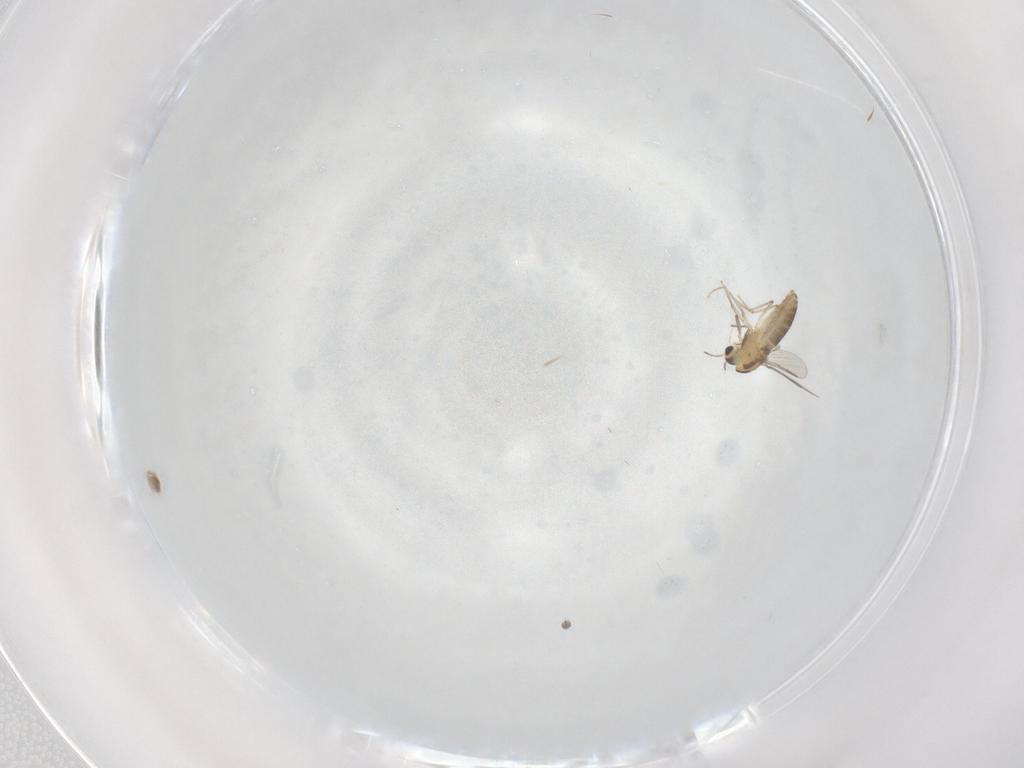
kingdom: Animalia
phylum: Arthropoda
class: Insecta
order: Diptera
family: Chironomidae
